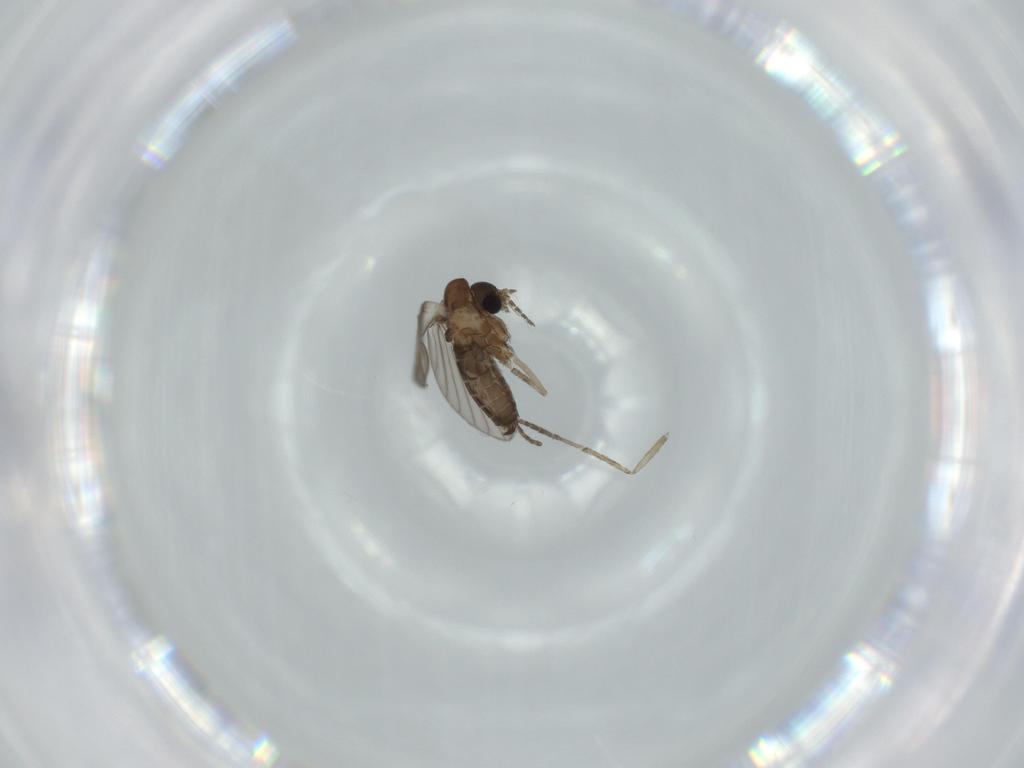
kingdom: Animalia
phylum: Arthropoda
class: Insecta
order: Diptera
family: Psychodidae
